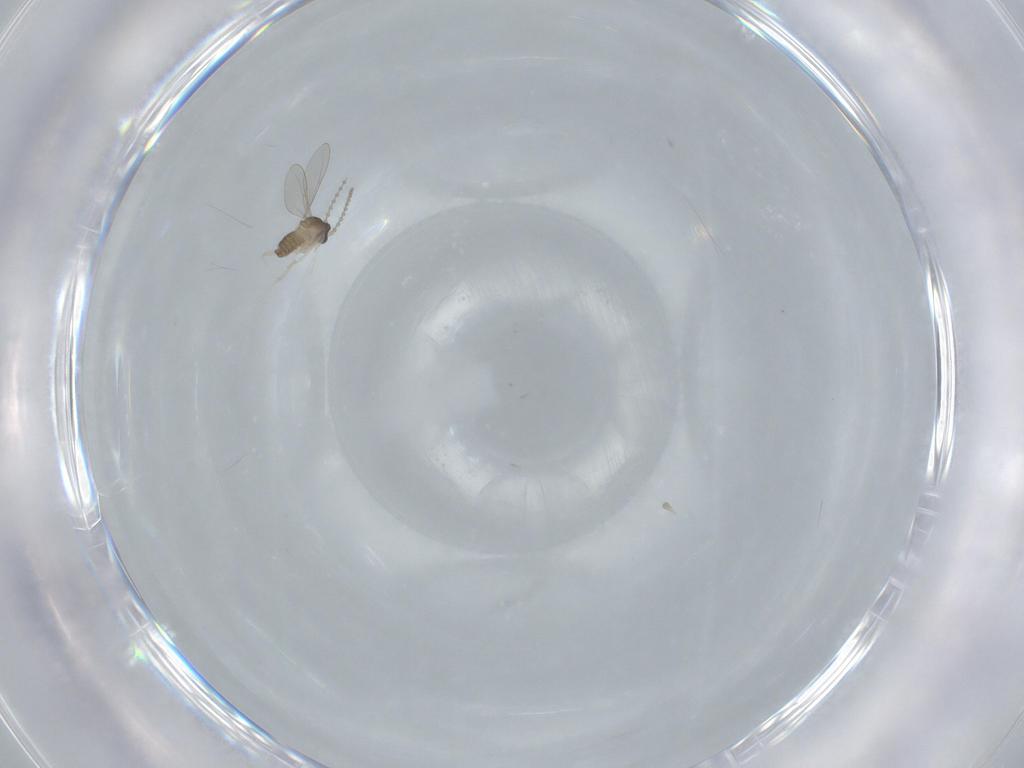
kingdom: Animalia
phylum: Arthropoda
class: Insecta
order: Diptera
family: Cecidomyiidae
